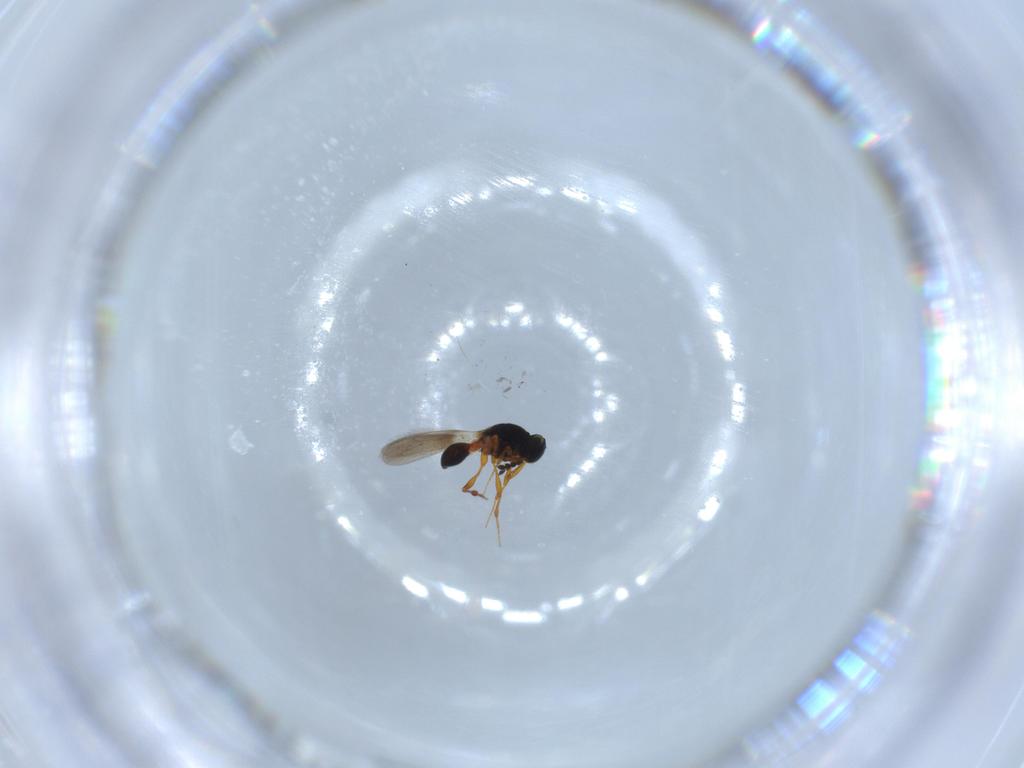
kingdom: Animalia
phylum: Arthropoda
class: Insecta
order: Hymenoptera
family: Platygastridae
